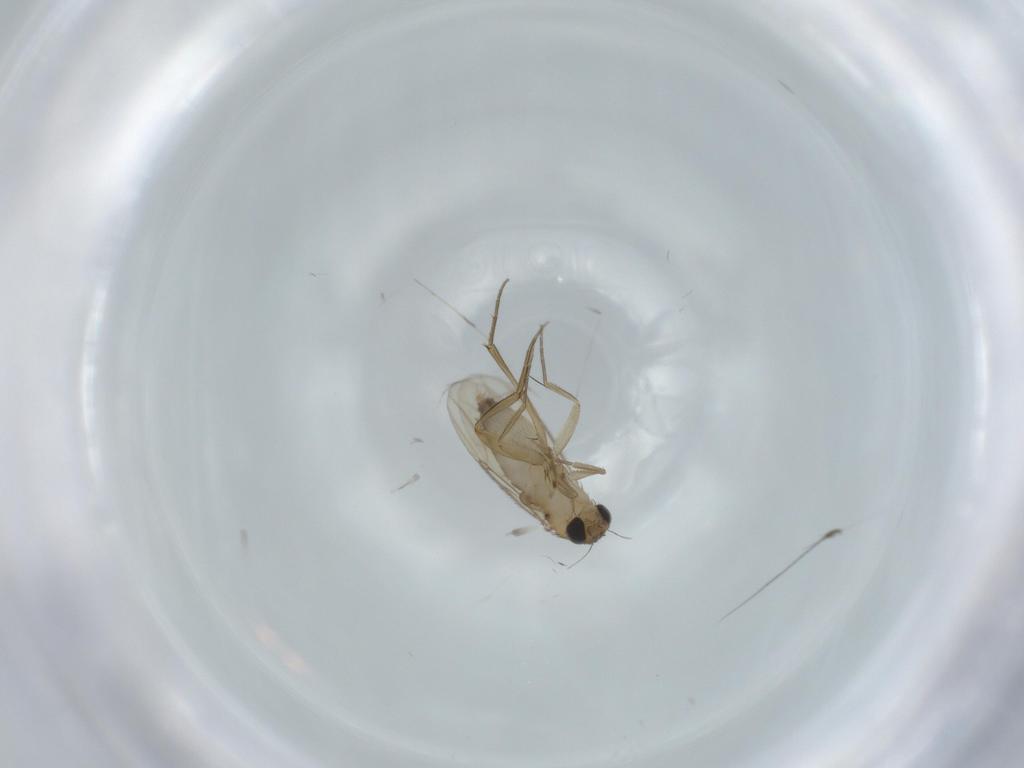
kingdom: Animalia
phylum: Arthropoda
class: Insecta
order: Diptera
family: Phoridae
